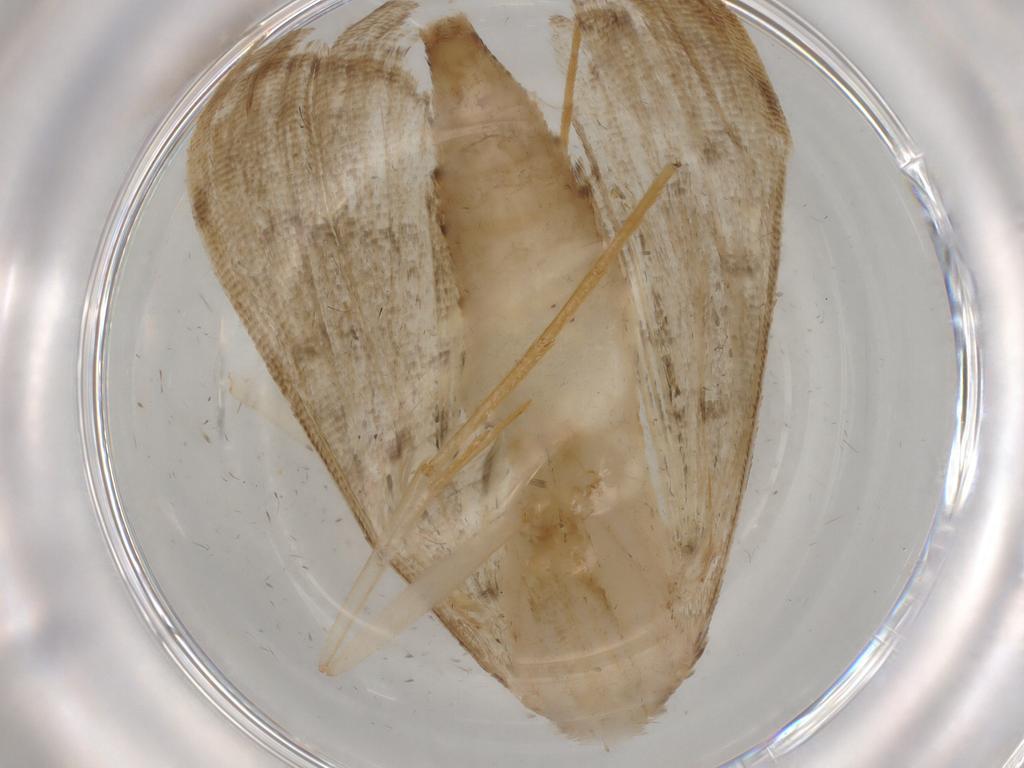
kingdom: Animalia
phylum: Arthropoda
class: Insecta
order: Lepidoptera
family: Crambidae
